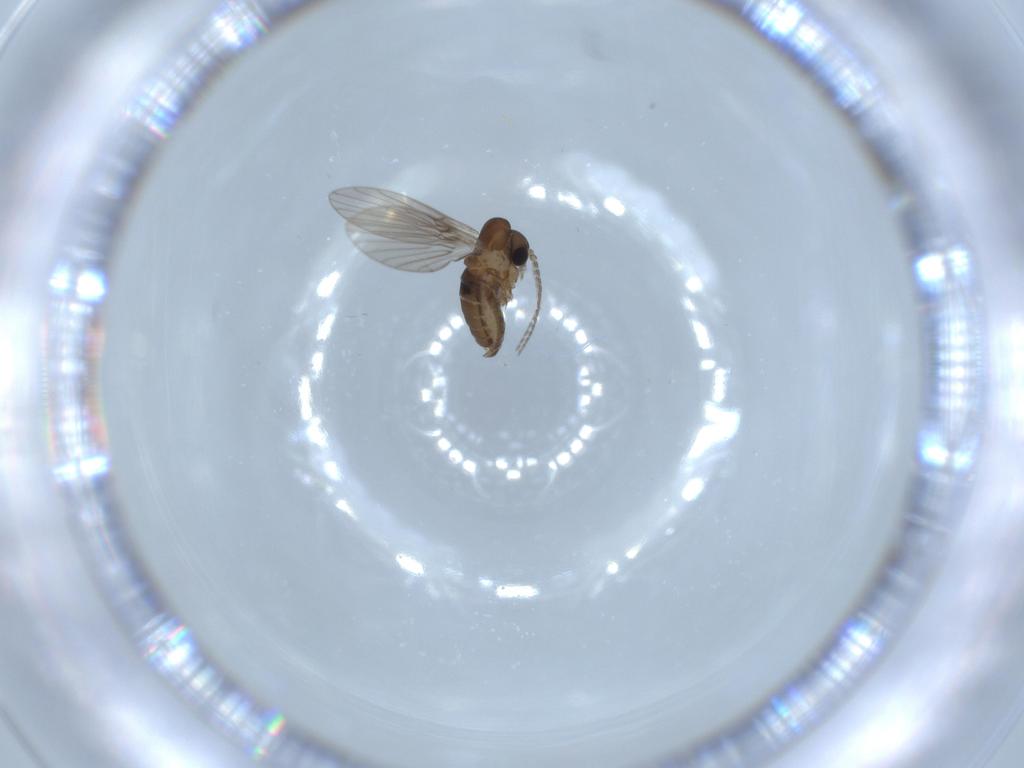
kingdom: Animalia
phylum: Arthropoda
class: Insecta
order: Diptera
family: Psychodidae
